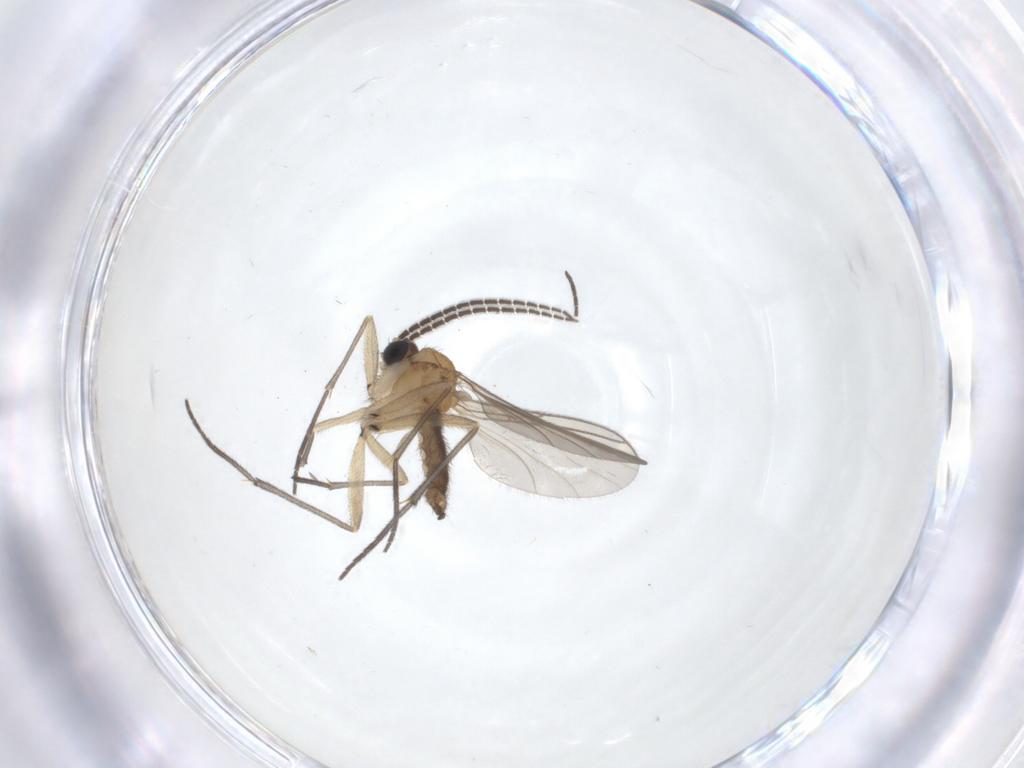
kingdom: Animalia
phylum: Arthropoda
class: Insecta
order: Diptera
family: Sciaridae
